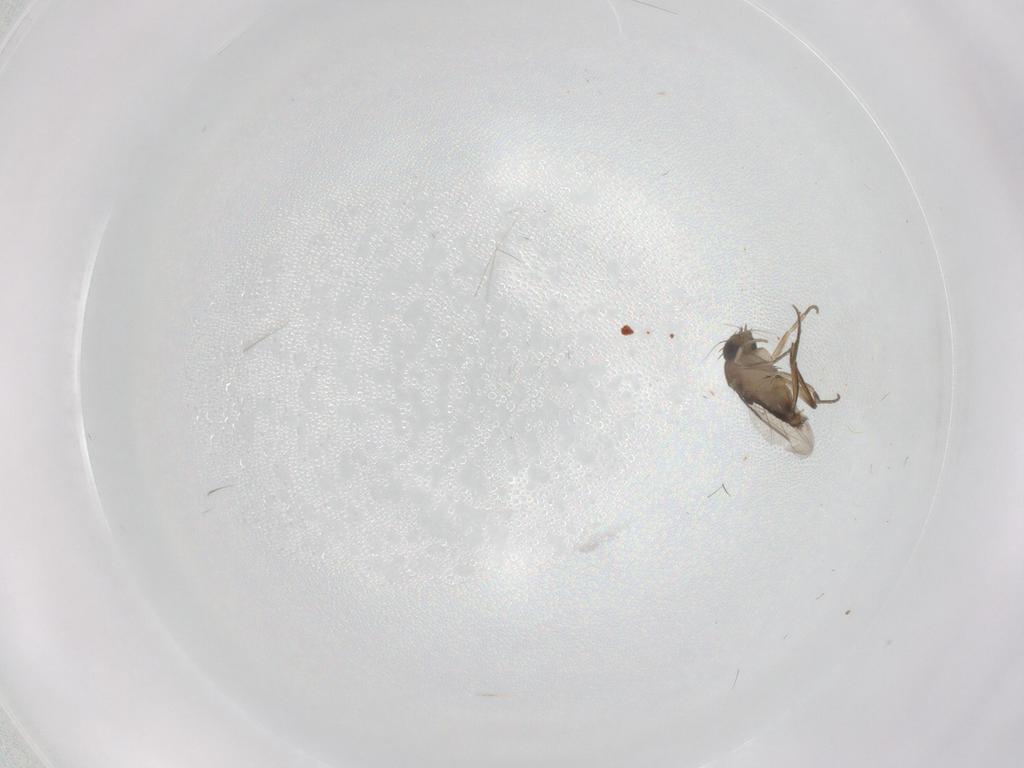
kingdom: Animalia
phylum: Arthropoda
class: Insecta
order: Diptera
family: Phoridae
